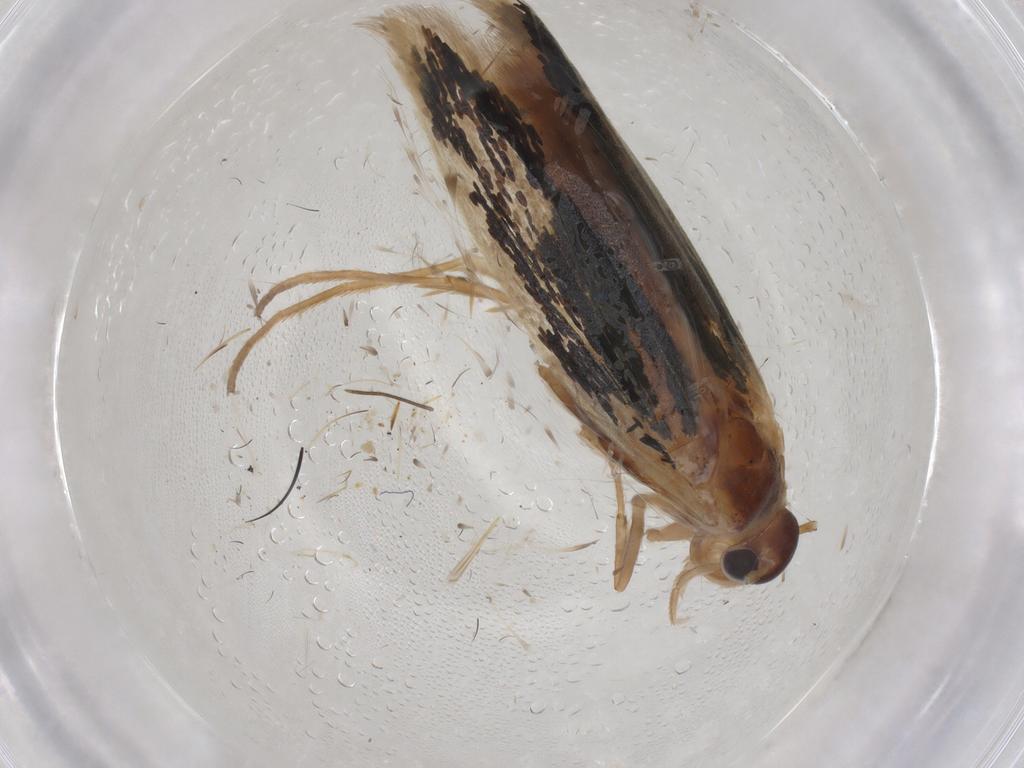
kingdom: Animalia
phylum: Arthropoda
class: Insecta
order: Lepidoptera
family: Scythrididae
